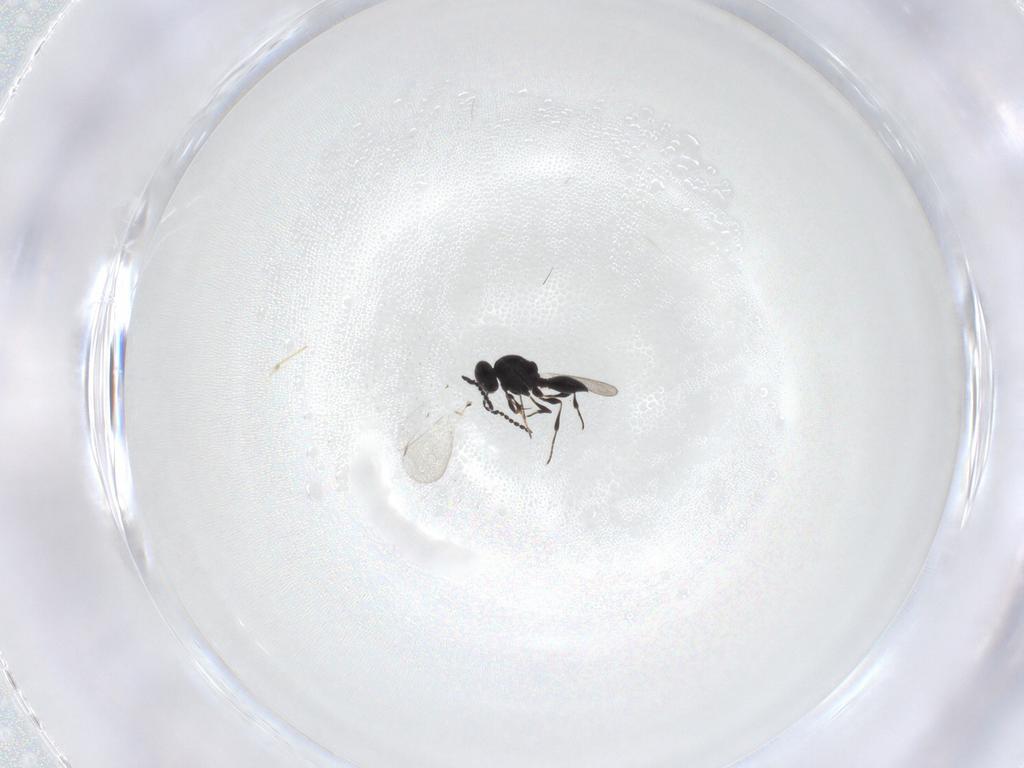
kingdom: Animalia
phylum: Arthropoda
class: Insecta
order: Hymenoptera
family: Platygastridae
